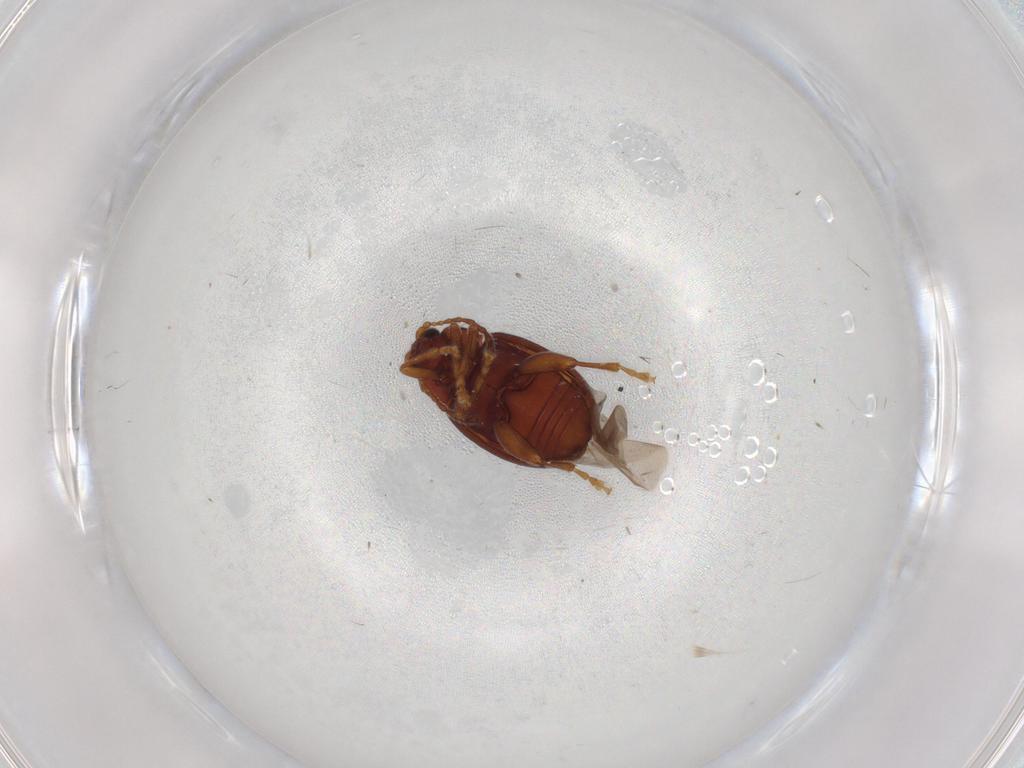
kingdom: Animalia
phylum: Arthropoda
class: Insecta
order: Coleoptera
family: Chrysomelidae
